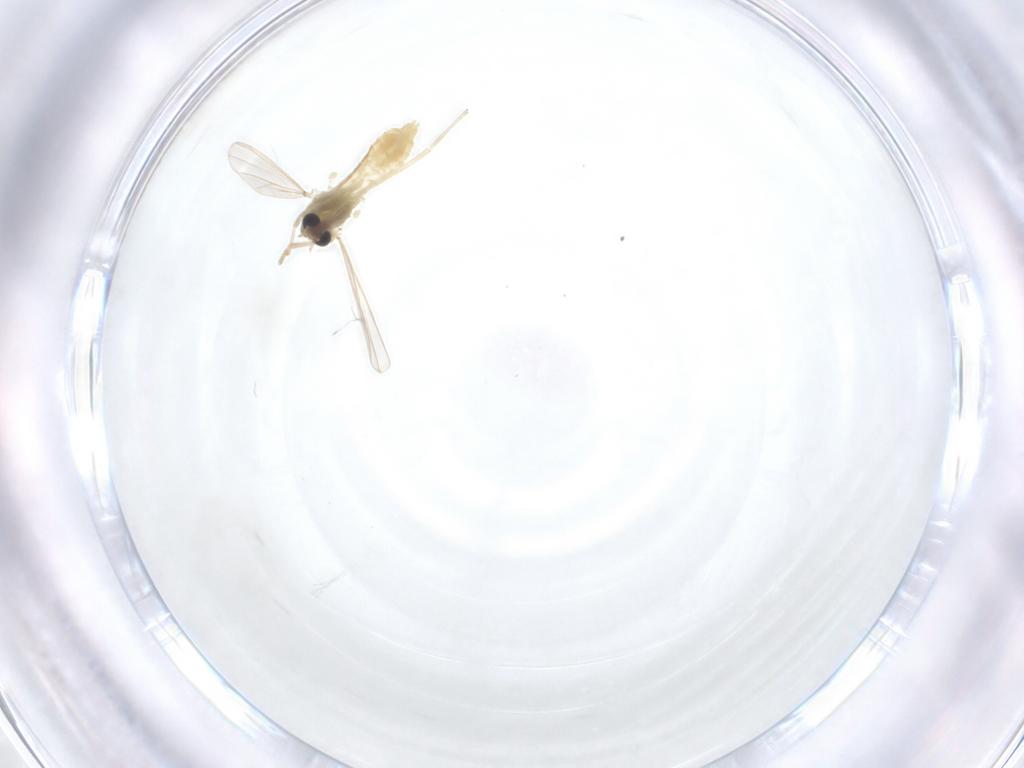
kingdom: Animalia
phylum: Arthropoda
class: Insecta
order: Diptera
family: Chironomidae
